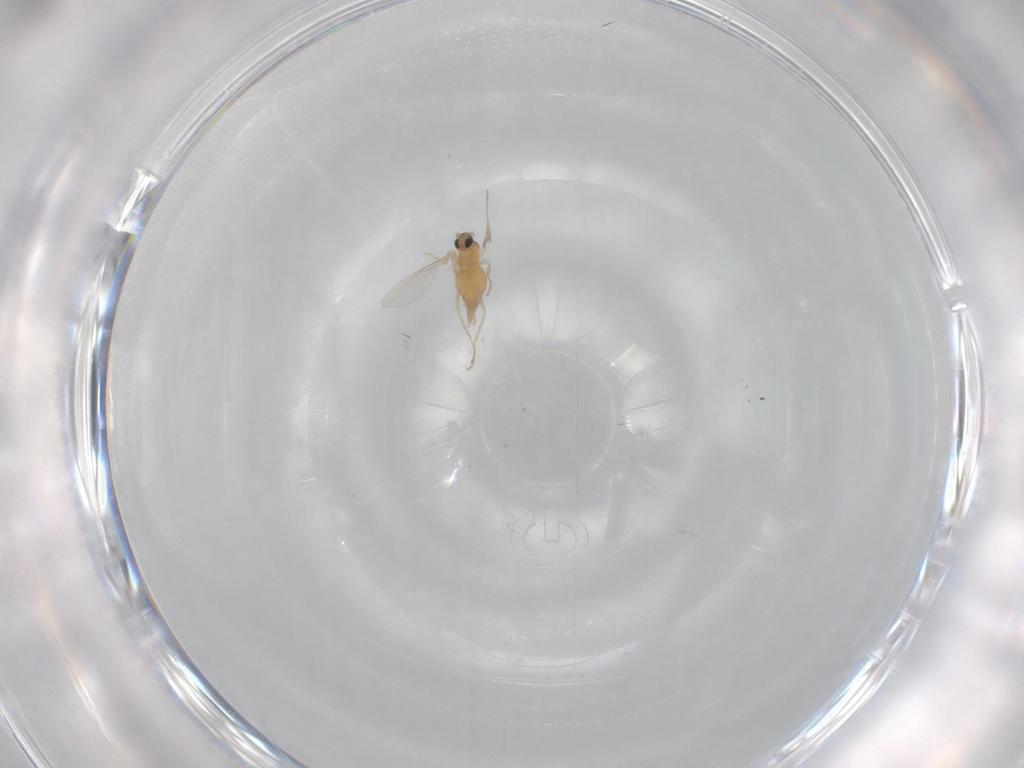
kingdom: Animalia
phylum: Arthropoda
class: Insecta
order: Diptera
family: Cecidomyiidae
